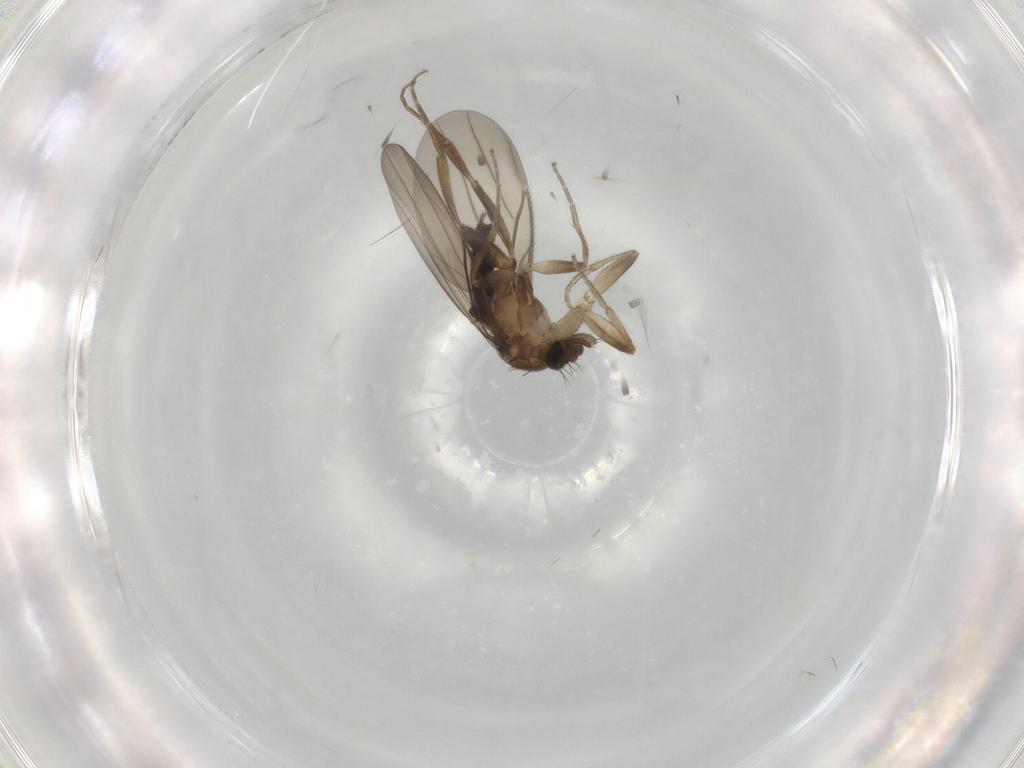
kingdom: Animalia
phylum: Arthropoda
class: Insecta
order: Diptera
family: Phoridae
